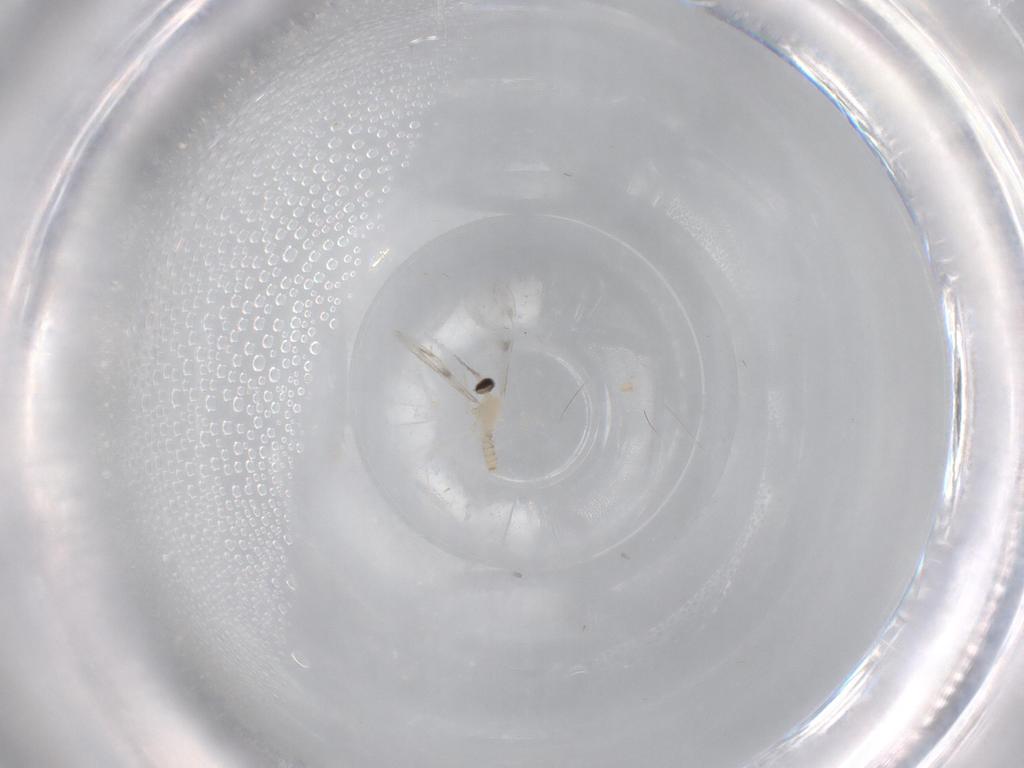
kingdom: Animalia
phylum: Arthropoda
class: Insecta
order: Diptera
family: Cecidomyiidae
